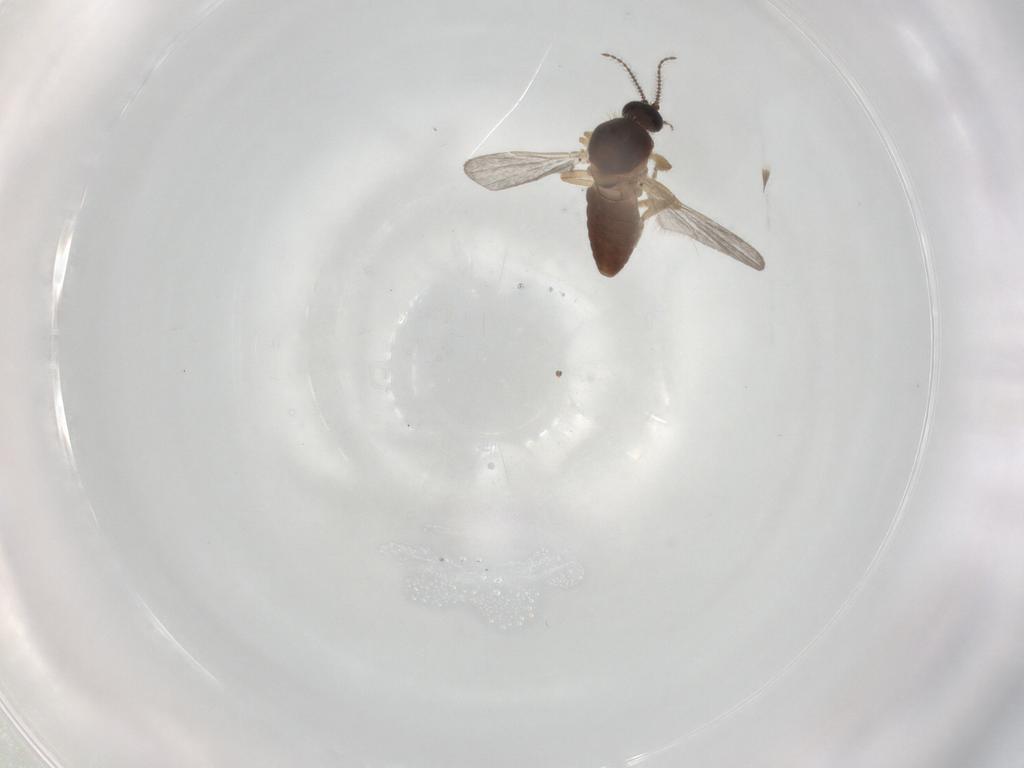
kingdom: Animalia
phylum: Arthropoda
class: Insecta
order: Diptera
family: Ceratopogonidae
